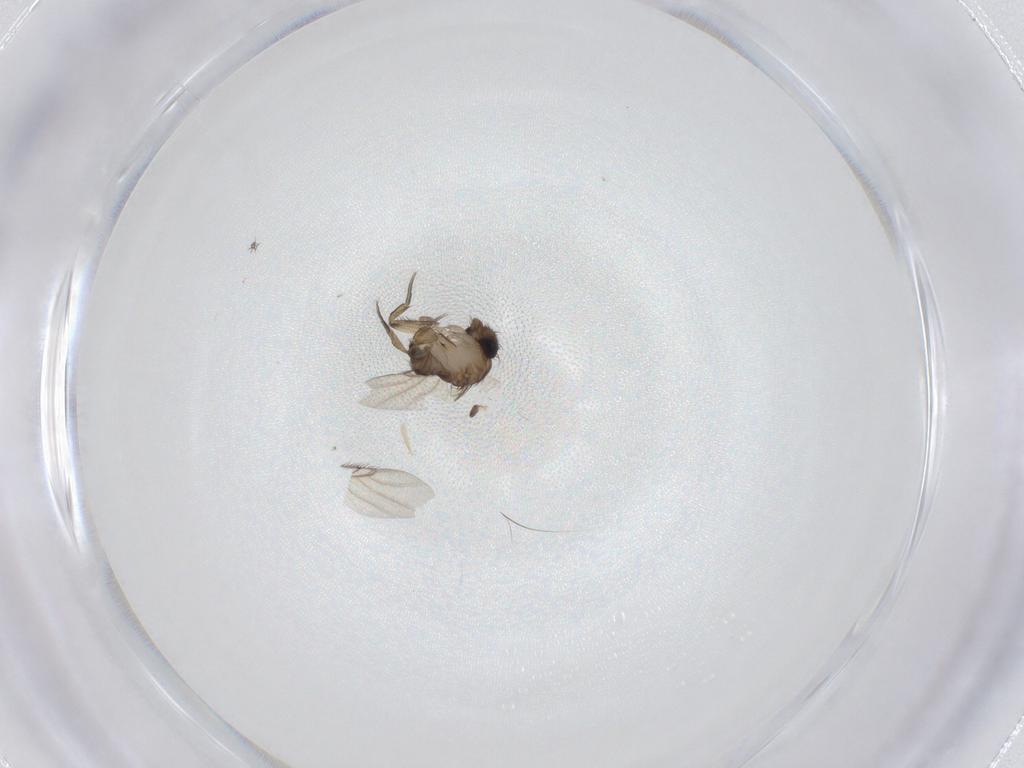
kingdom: Animalia
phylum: Arthropoda
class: Insecta
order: Diptera
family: Phoridae
